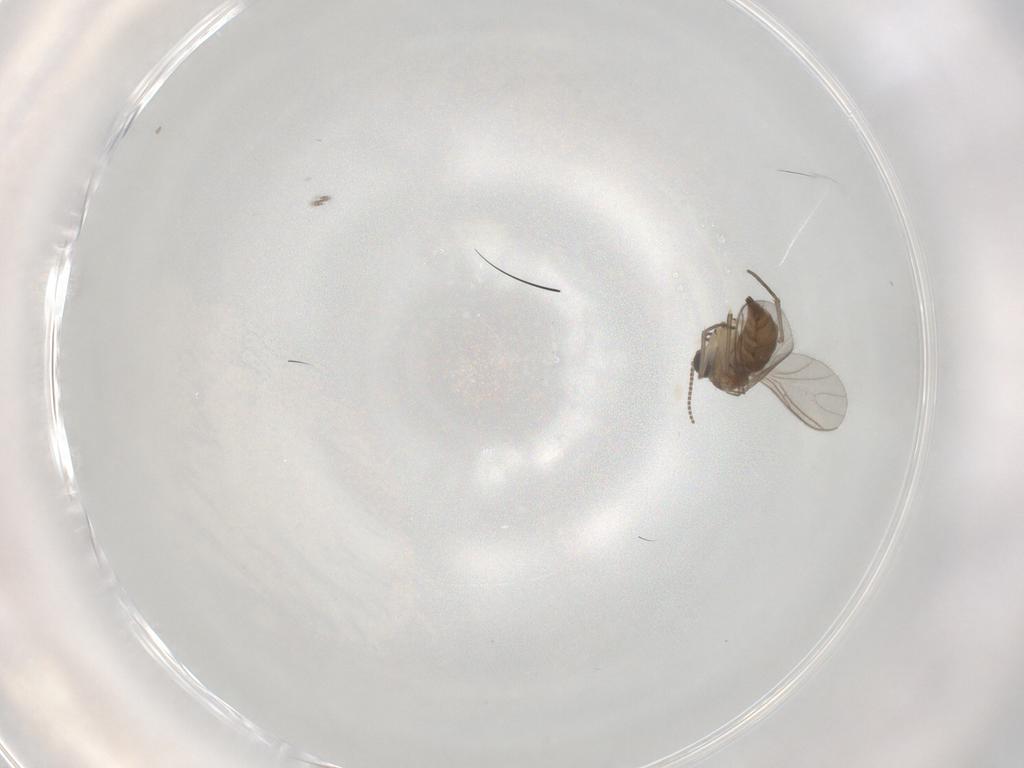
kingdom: Animalia
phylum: Arthropoda
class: Insecta
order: Diptera
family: Sciaridae
